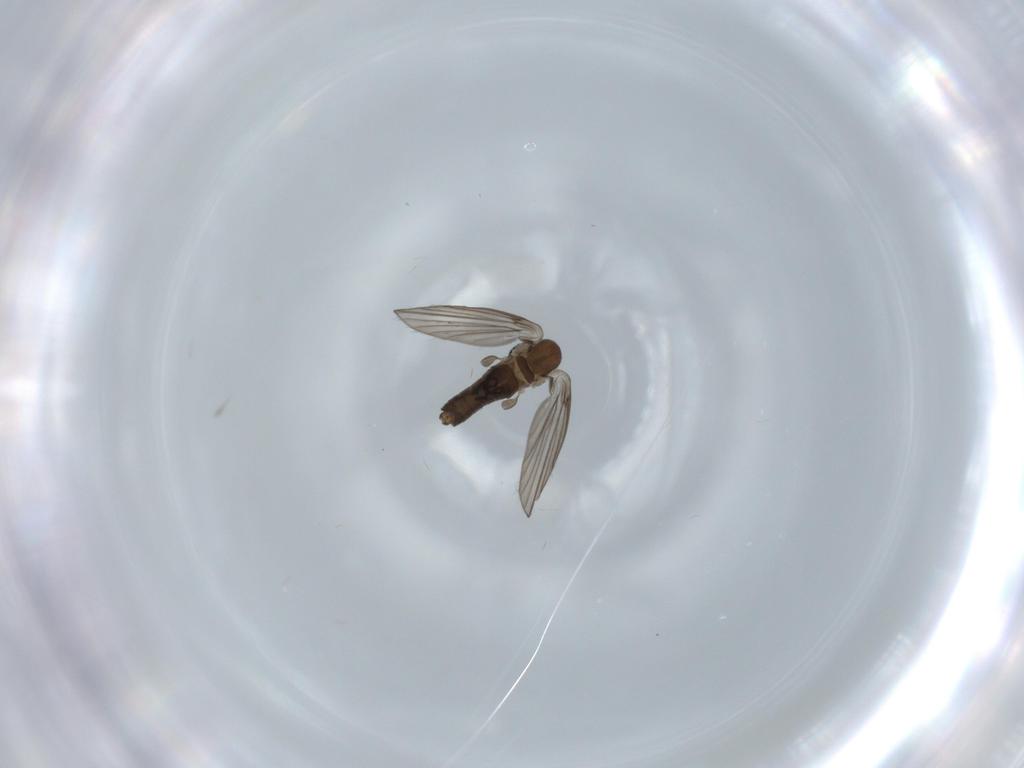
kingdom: Animalia
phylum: Arthropoda
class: Insecta
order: Diptera
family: Psychodidae
